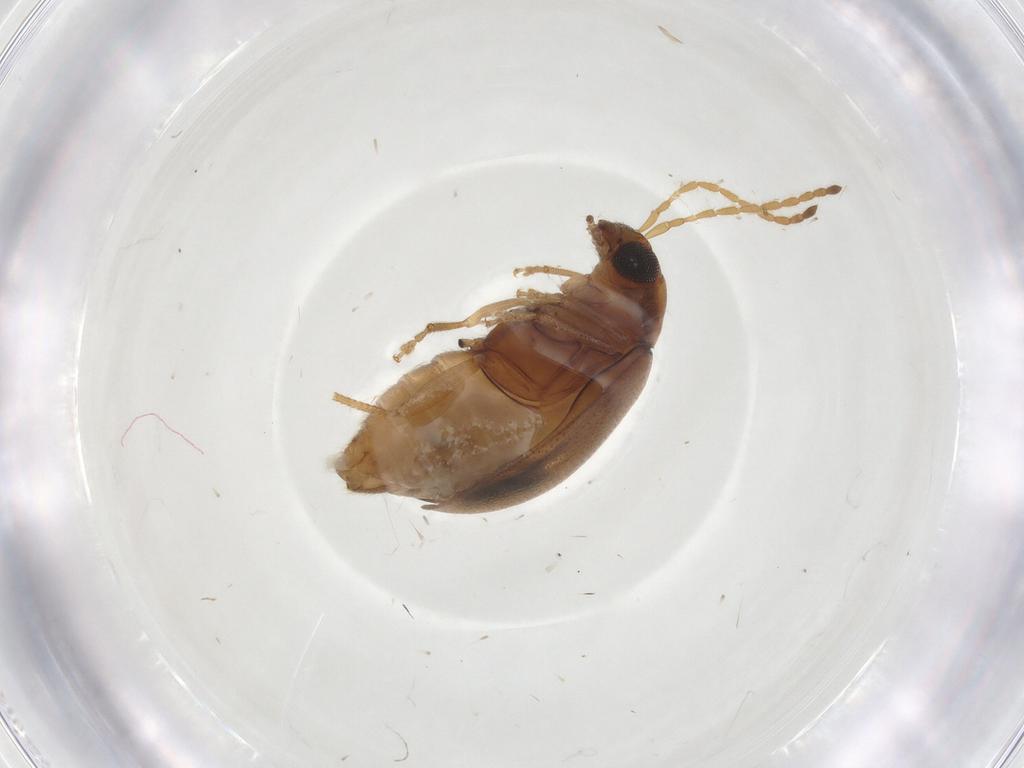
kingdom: Animalia
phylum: Arthropoda
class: Insecta
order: Coleoptera
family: Chrysomelidae
